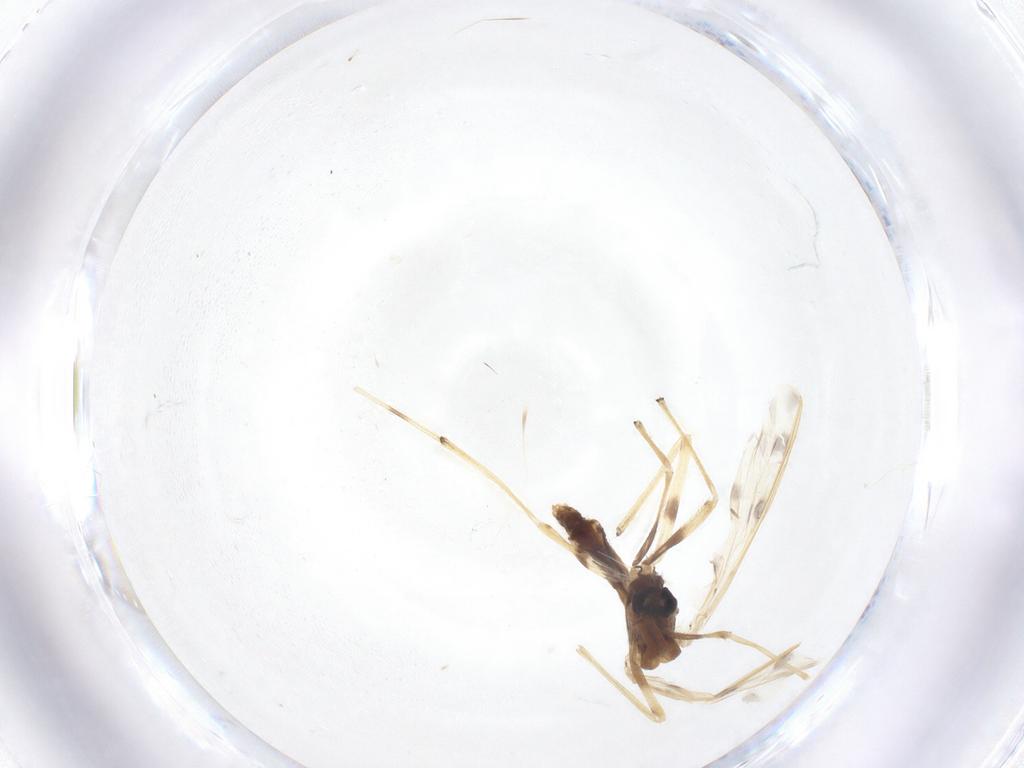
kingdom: Animalia
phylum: Arthropoda
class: Insecta
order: Diptera
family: Chironomidae
